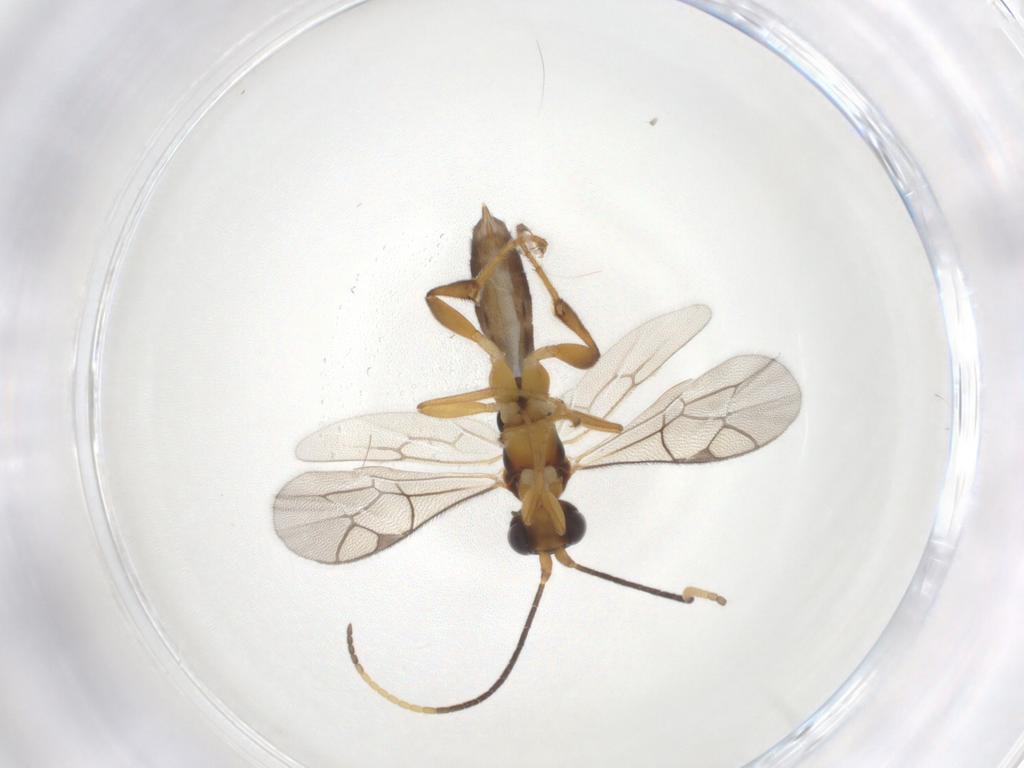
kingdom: Animalia
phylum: Arthropoda
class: Insecta
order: Hymenoptera
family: Ichneumonidae
